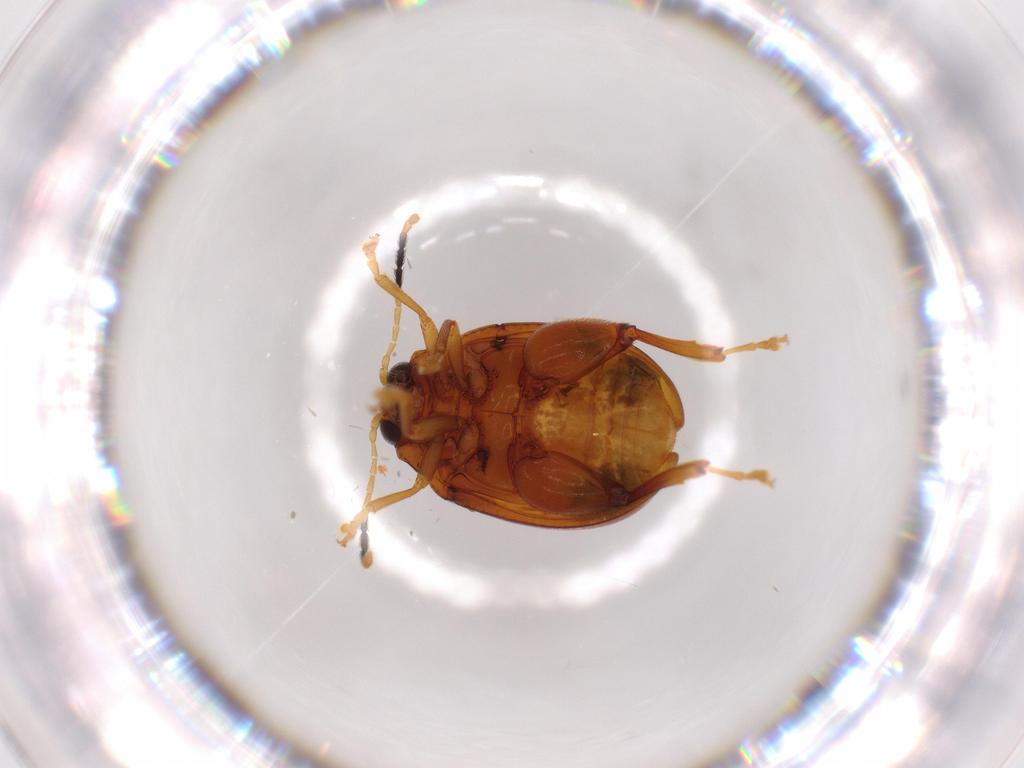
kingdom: Animalia
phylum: Arthropoda
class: Insecta
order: Coleoptera
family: Chrysomelidae
